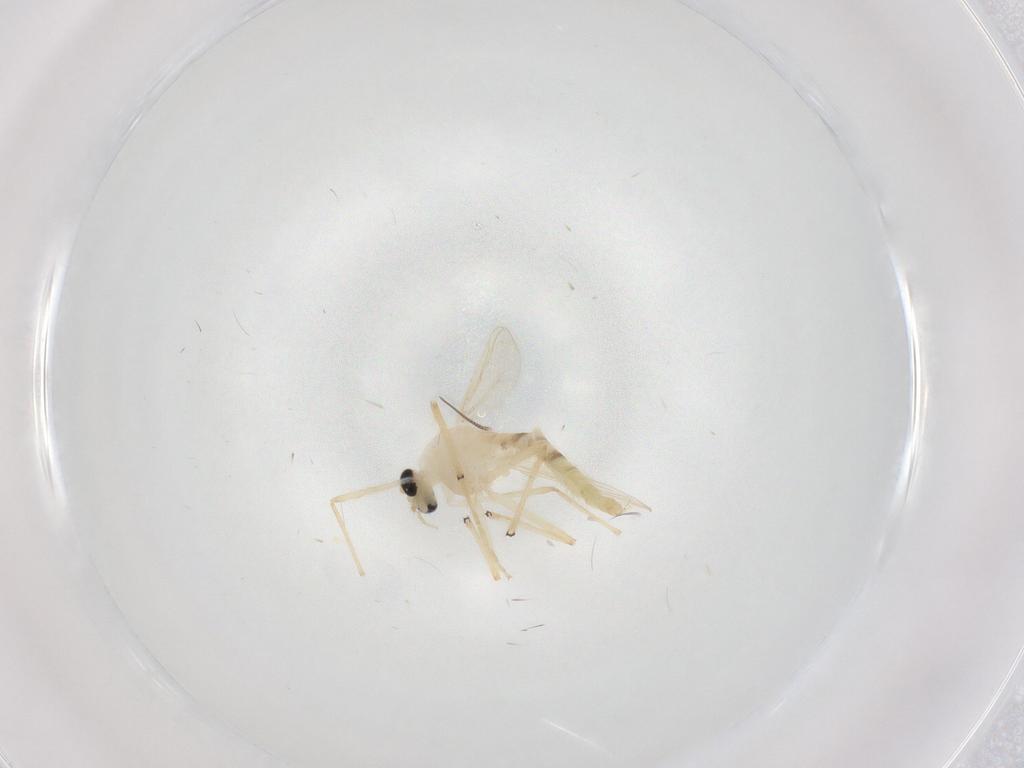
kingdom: Animalia
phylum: Arthropoda
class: Insecta
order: Diptera
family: Chironomidae
